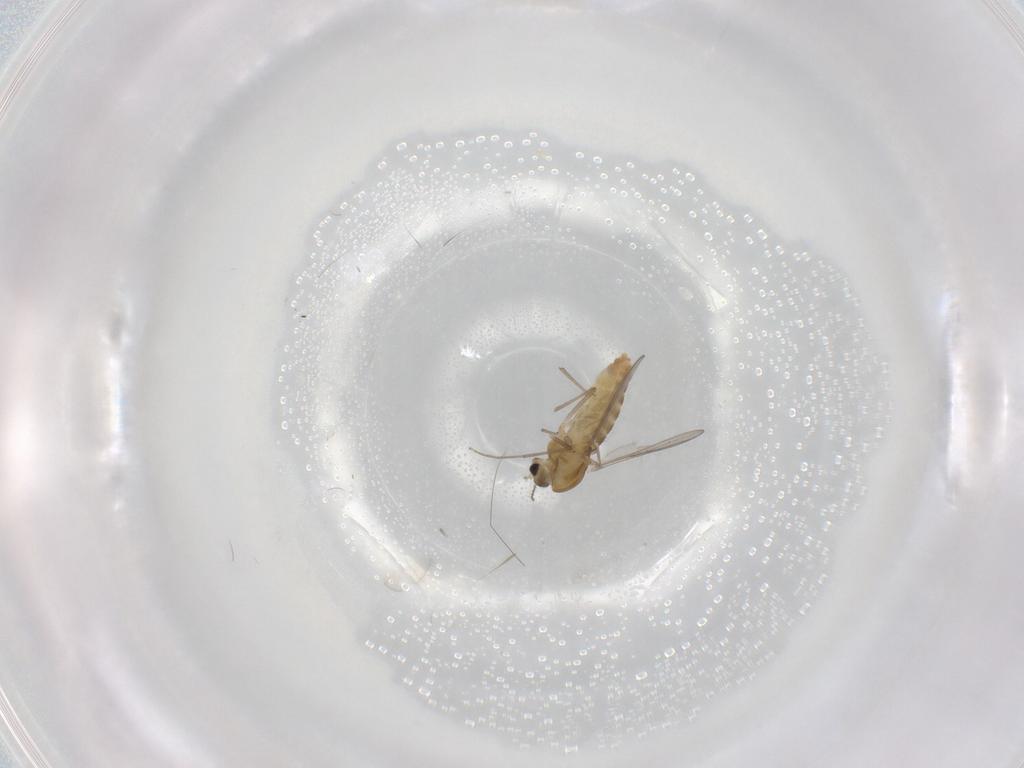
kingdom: Animalia
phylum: Arthropoda
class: Insecta
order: Diptera
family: Chironomidae
